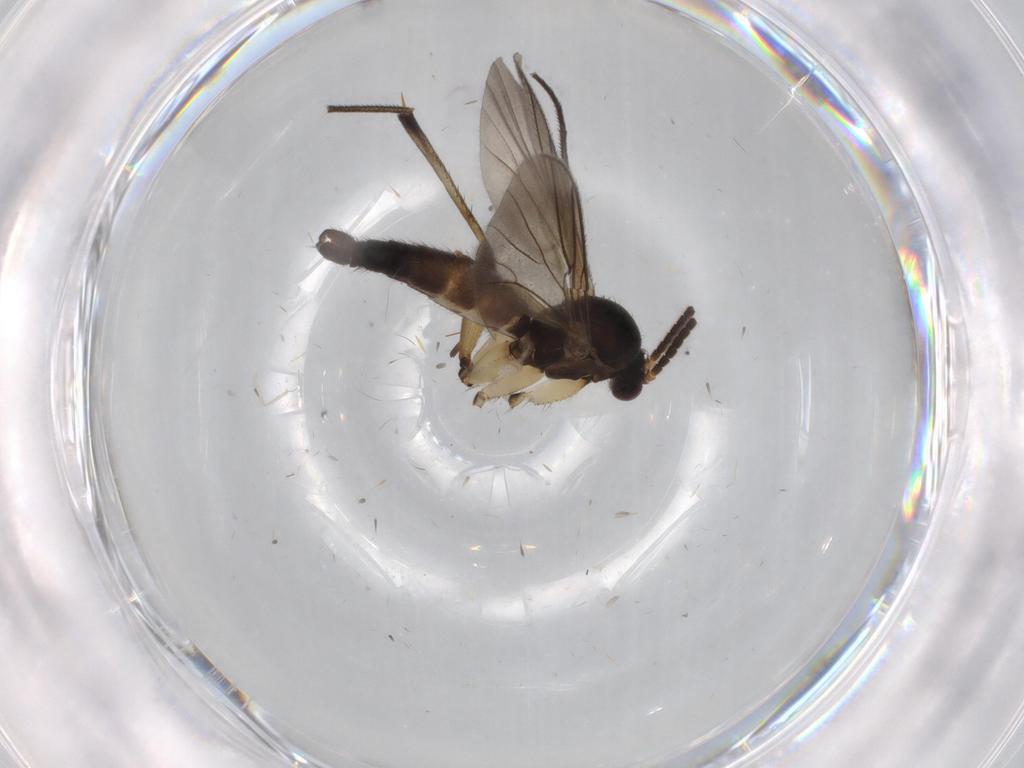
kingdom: Animalia
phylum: Arthropoda
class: Insecta
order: Diptera
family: Mycetophilidae
